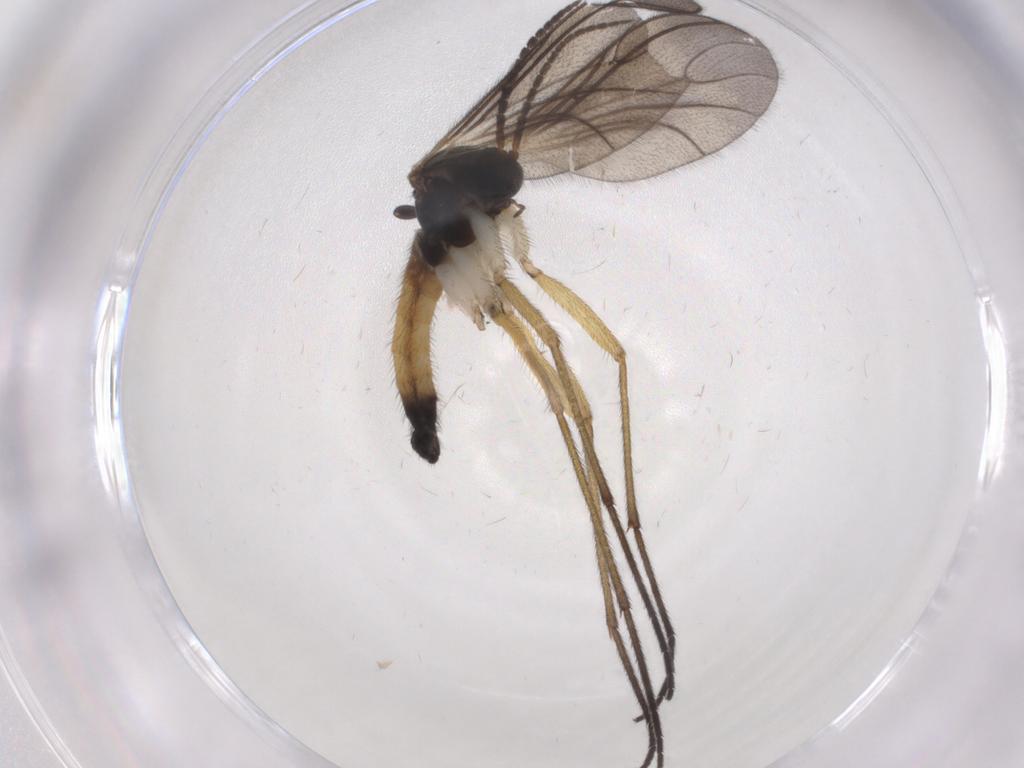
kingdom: Animalia
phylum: Arthropoda
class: Insecta
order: Diptera
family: Sciaridae
